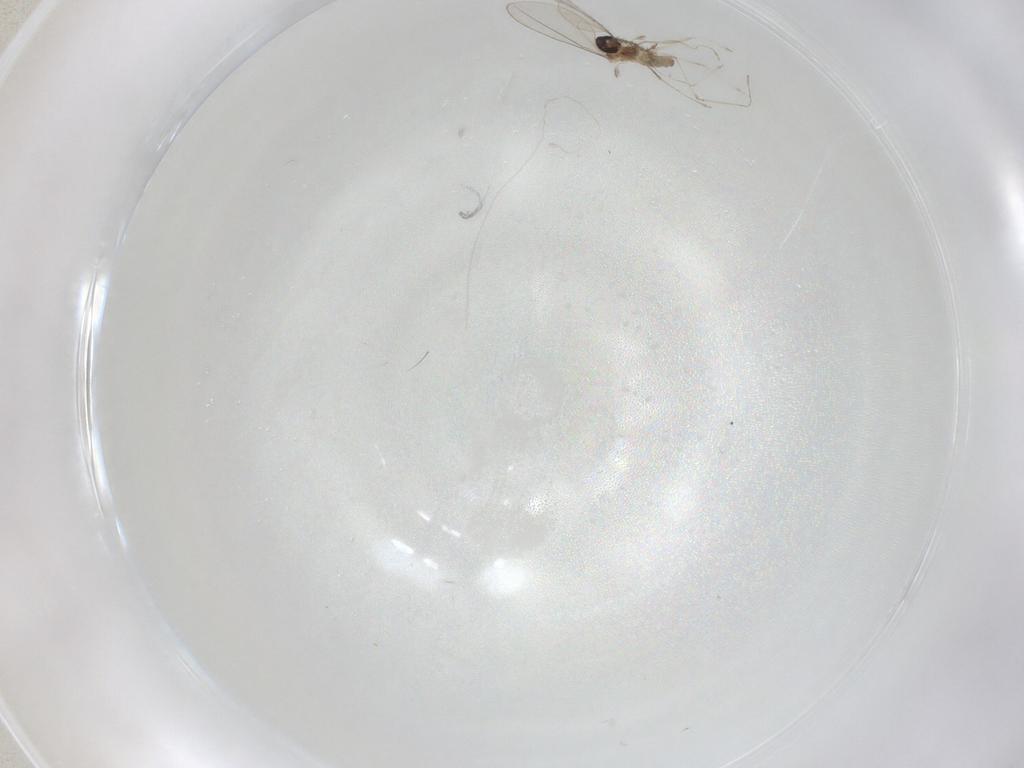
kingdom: Animalia
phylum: Arthropoda
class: Insecta
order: Diptera
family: Cecidomyiidae
